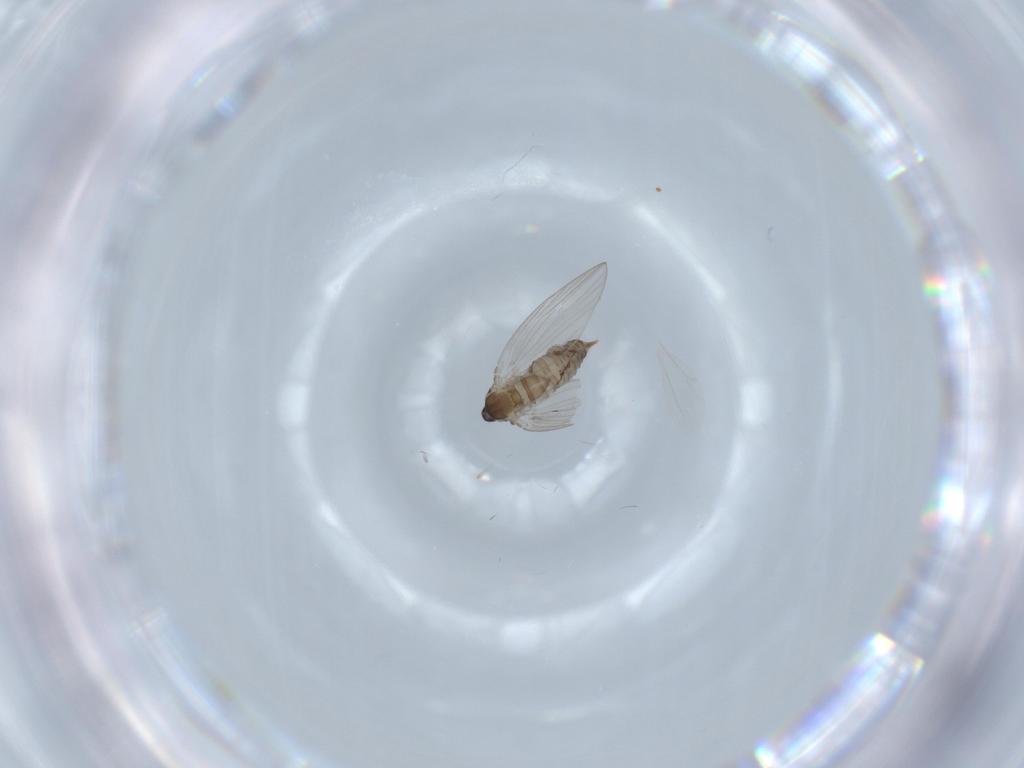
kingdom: Animalia
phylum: Arthropoda
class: Insecta
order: Diptera
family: Psychodidae
